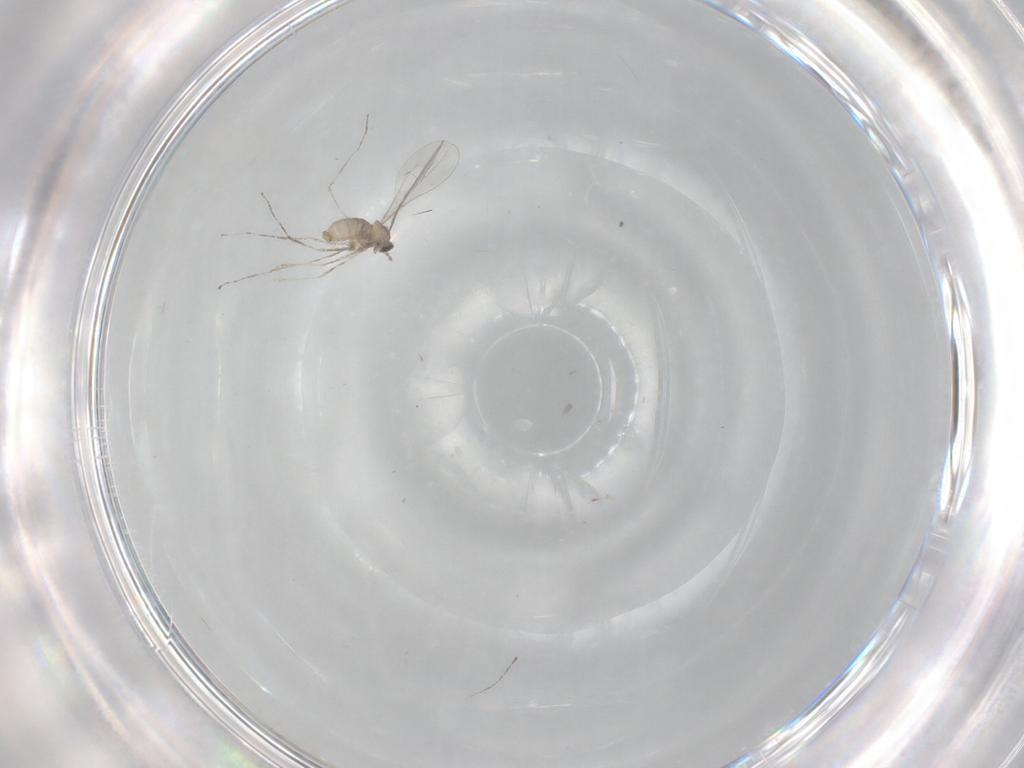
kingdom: Animalia
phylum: Arthropoda
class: Insecta
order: Diptera
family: Cecidomyiidae
